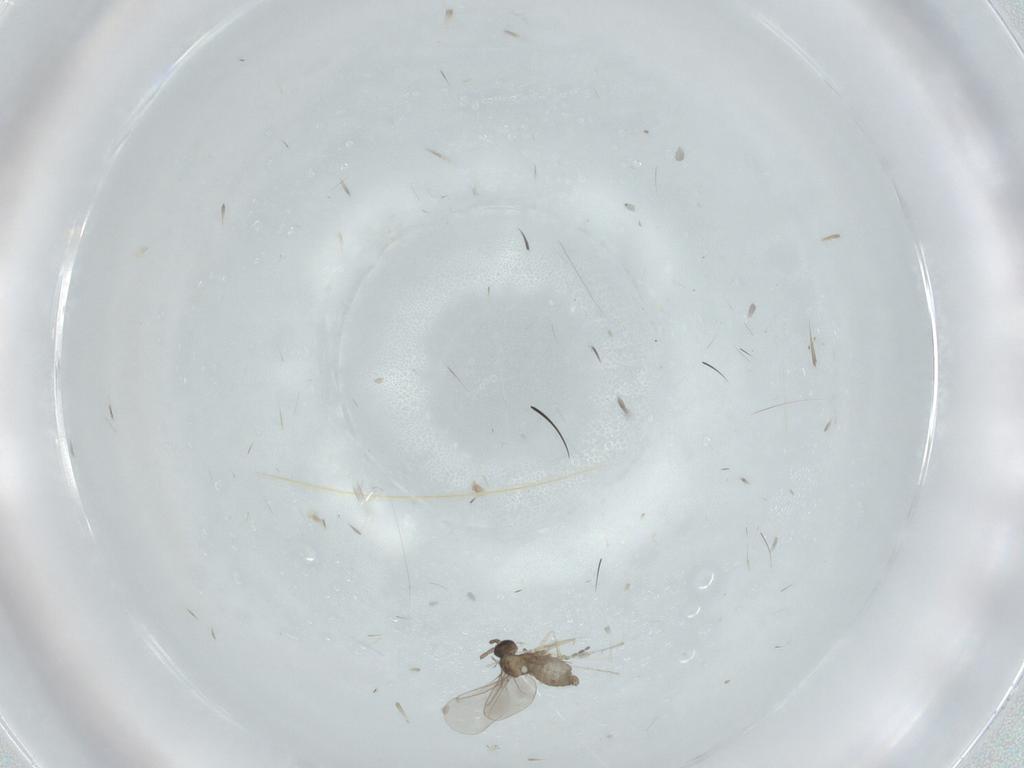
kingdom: Animalia
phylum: Arthropoda
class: Insecta
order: Diptera
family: Cecidomyiidae
